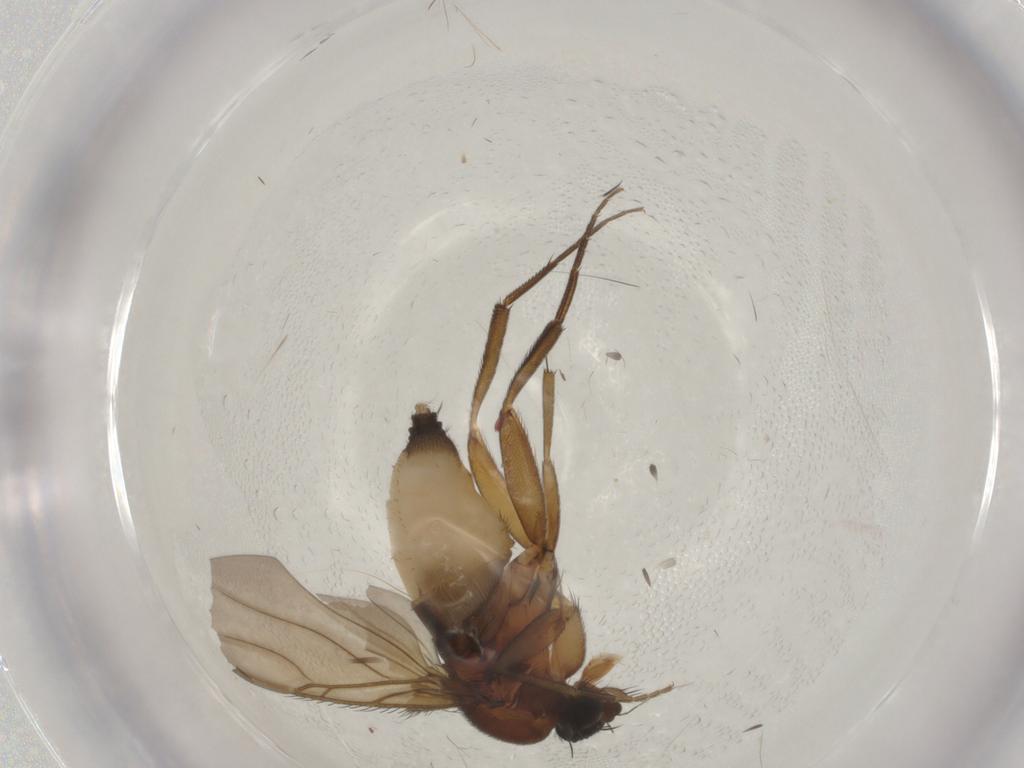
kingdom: Animalia
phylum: Arthropoda
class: Insecta
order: Diptera
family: Phoridae
